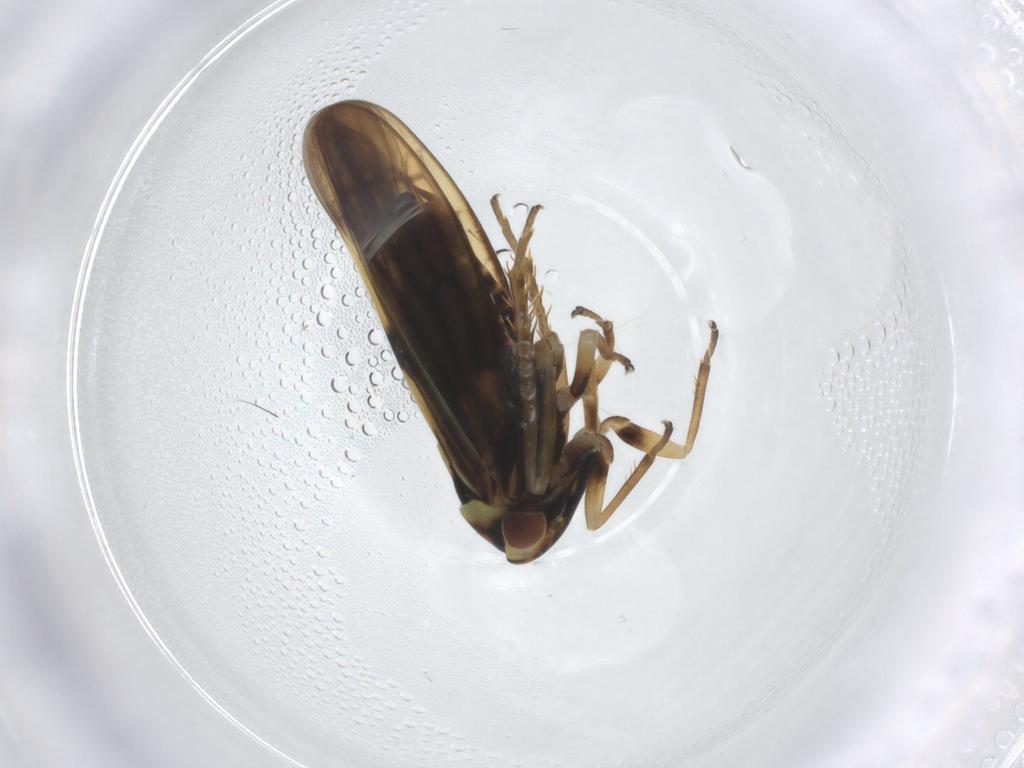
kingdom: Animalia
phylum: Arthropoda
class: Insecta
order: Hemiptera
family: Cicadellidae
